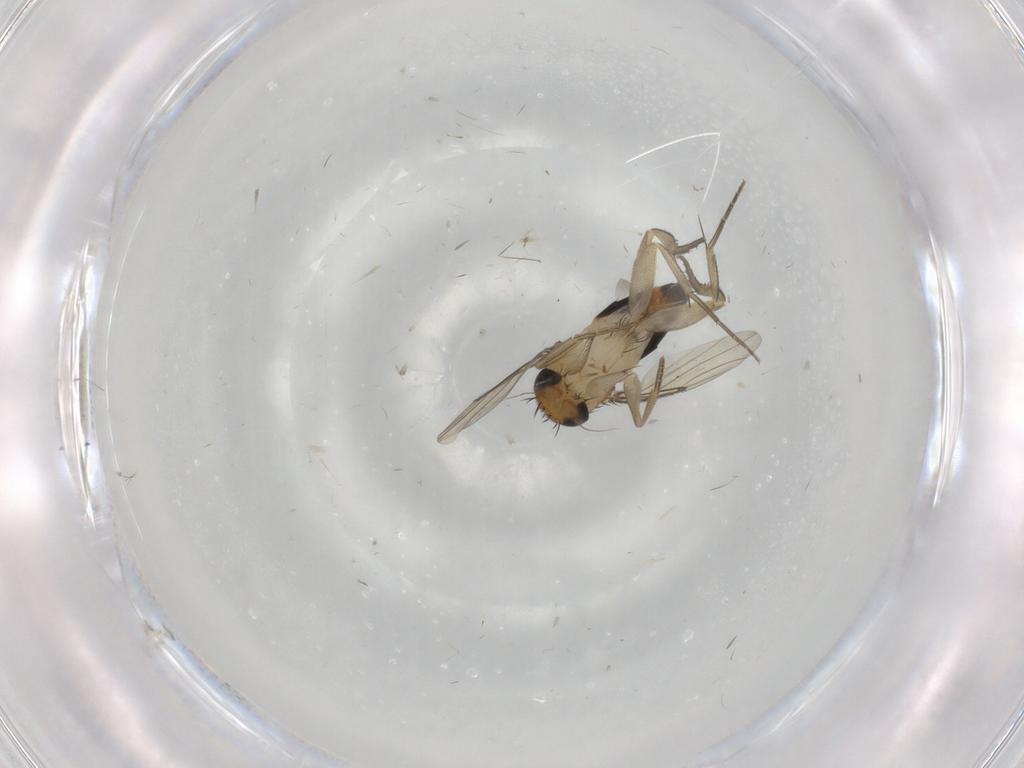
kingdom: Animalia
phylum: Arthropoda
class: Insecta
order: Diptera
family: Phoridae
